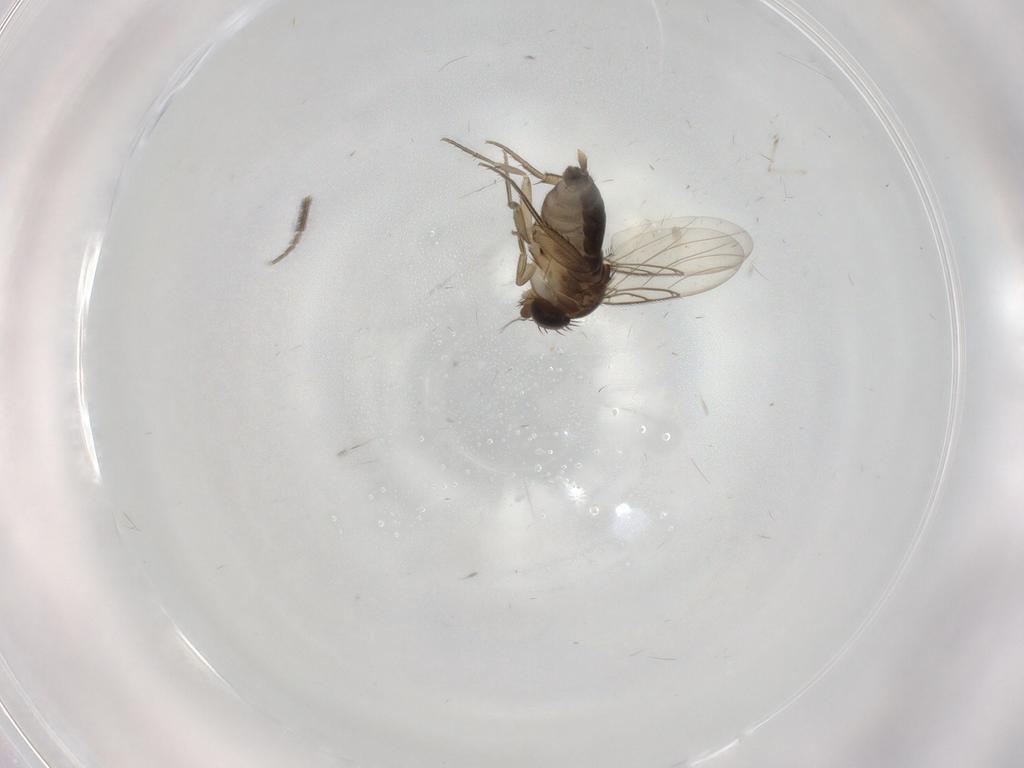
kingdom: Animalia
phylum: Arthropoda
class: Insecta
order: Diptera
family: Phoridae
